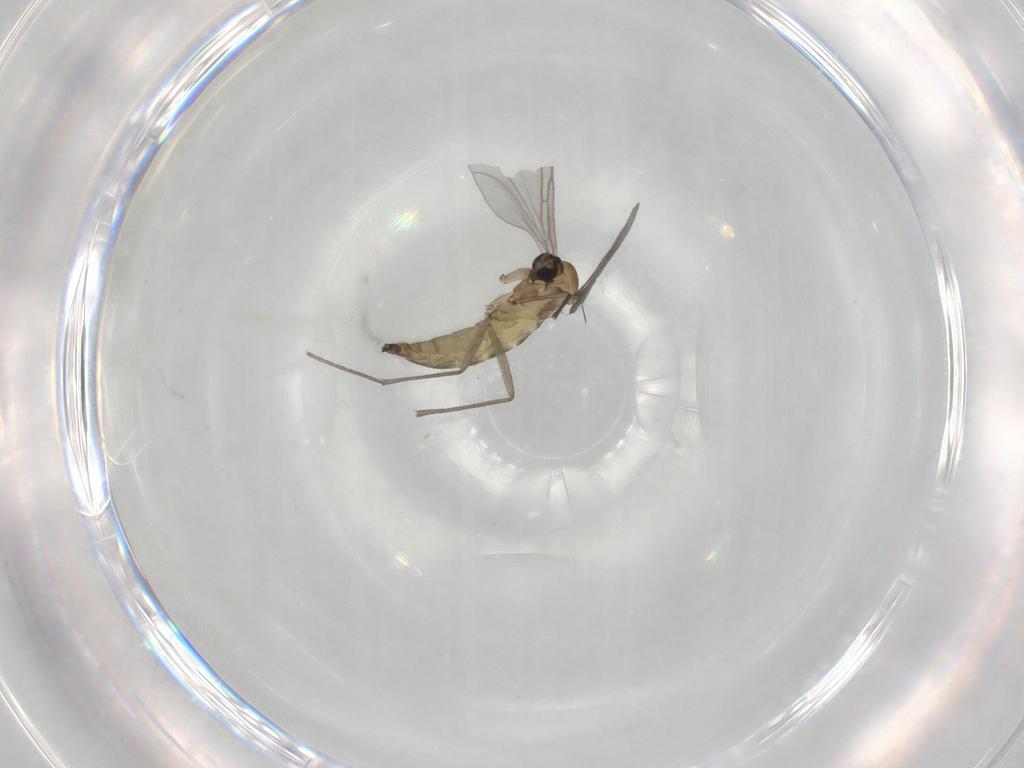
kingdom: Animalia
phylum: Arthropoda
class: Insecta
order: Diptera
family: Sciaridae
